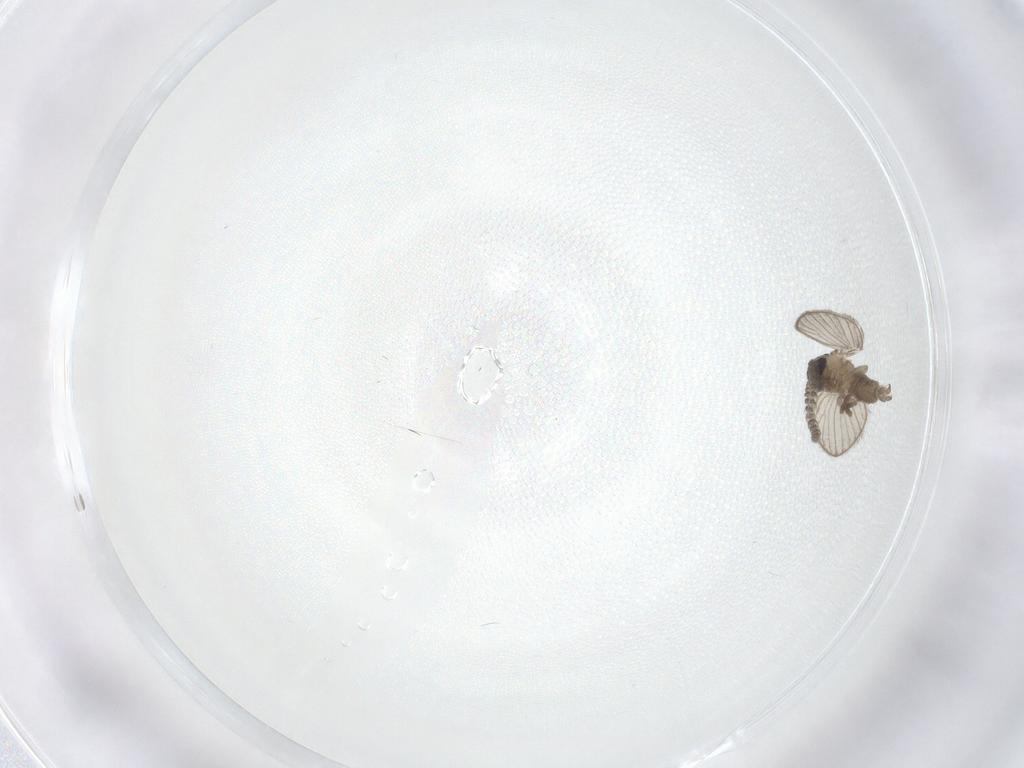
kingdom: Animalia
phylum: Arthropoda
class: Insecta
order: Diptera
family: Psychodidae
